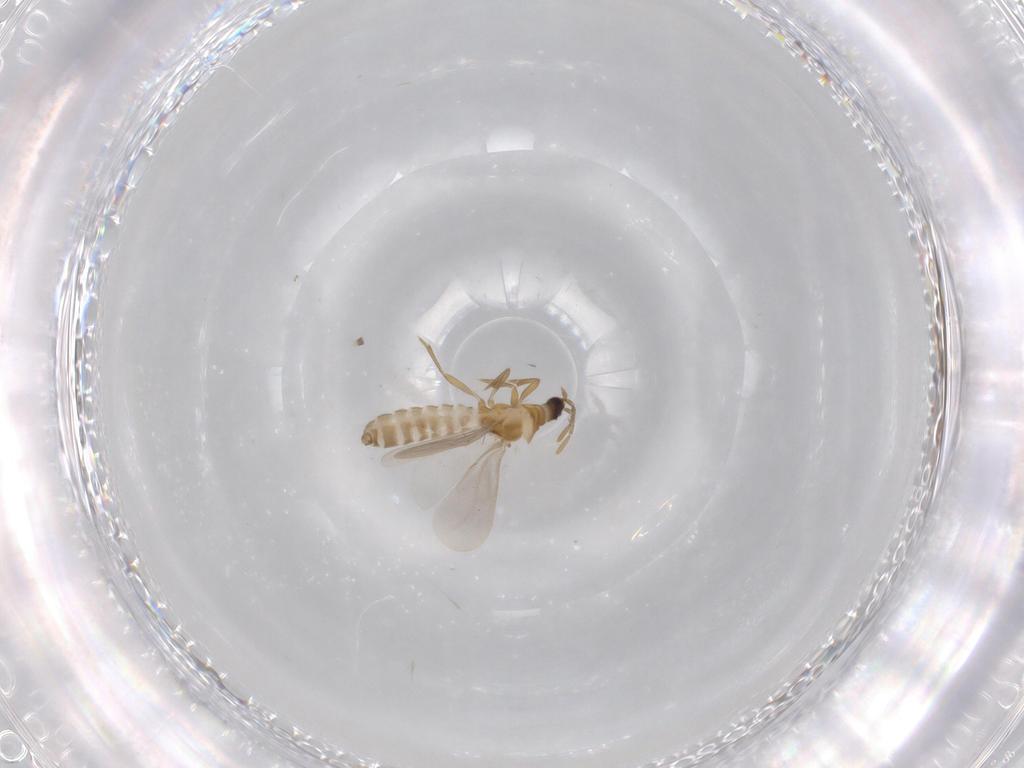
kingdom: Animalia
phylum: Arthropoda
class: Insecta
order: Hemiptera
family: Enicocephalidae
